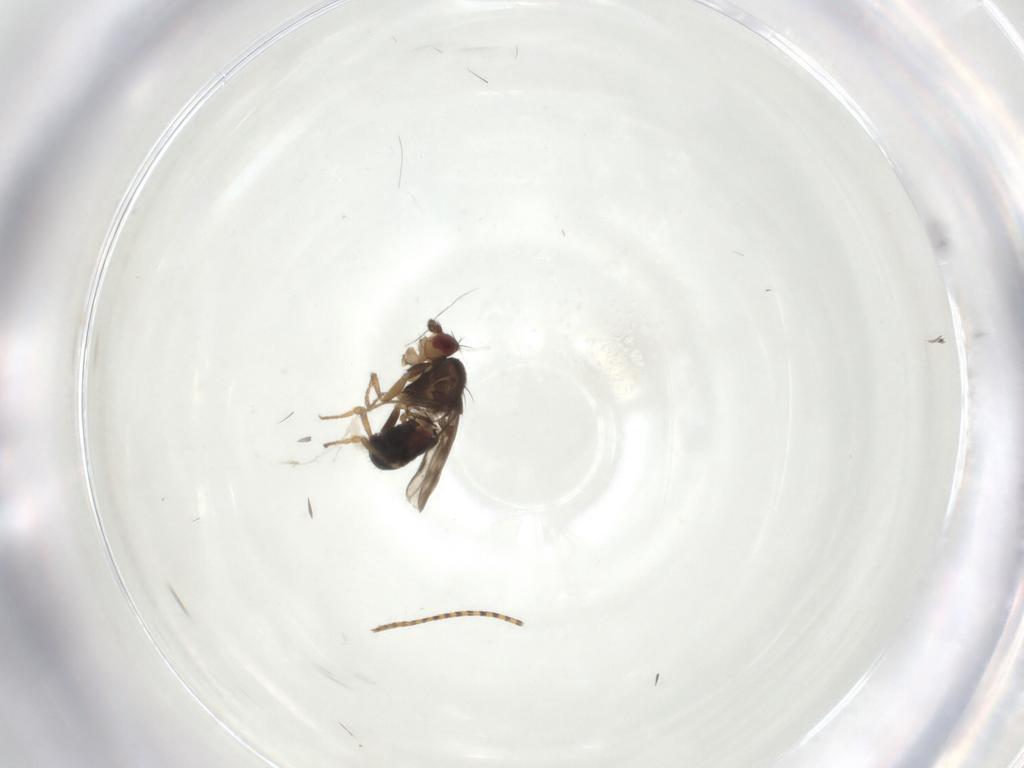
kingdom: Animalia
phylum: Arthropoda
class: Insecta
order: Diptera
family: Sphaeroceridae
